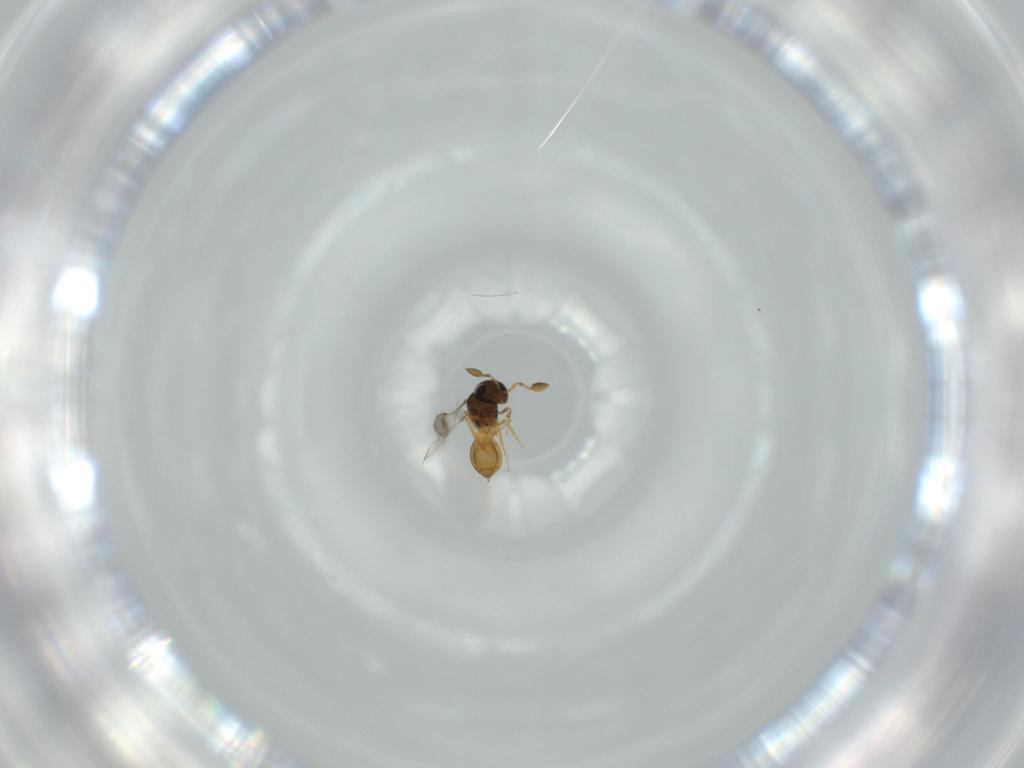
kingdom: Animalia
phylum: Arthropoda
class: Insecta
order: Hymenoptera
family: Scelionidae
